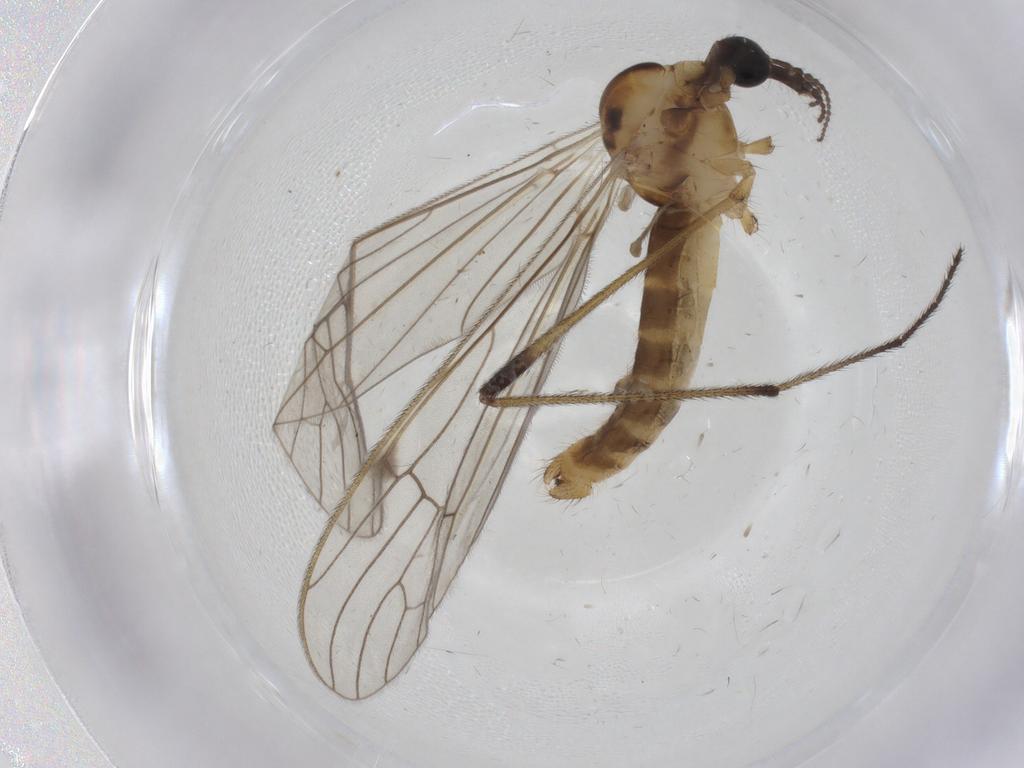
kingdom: Animalia
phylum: Arthropoda
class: Insecta
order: Diptera
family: Limoniidae
